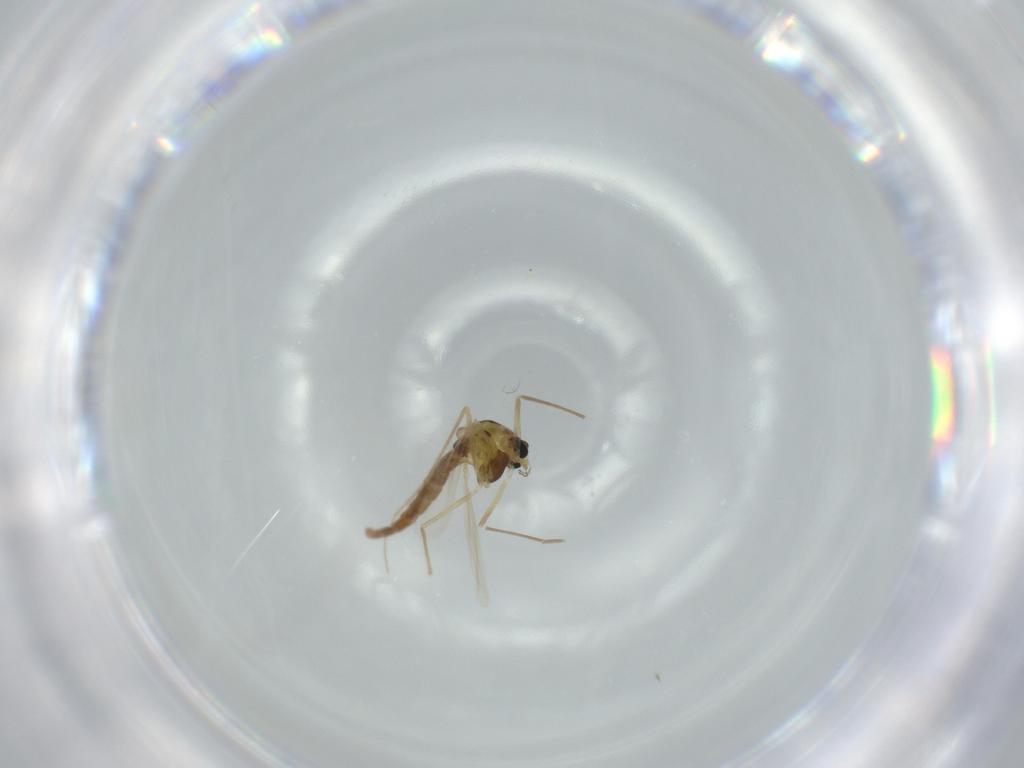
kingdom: Animalia
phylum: Arthropoda
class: Insecta
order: Diptera
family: Chironomidae
